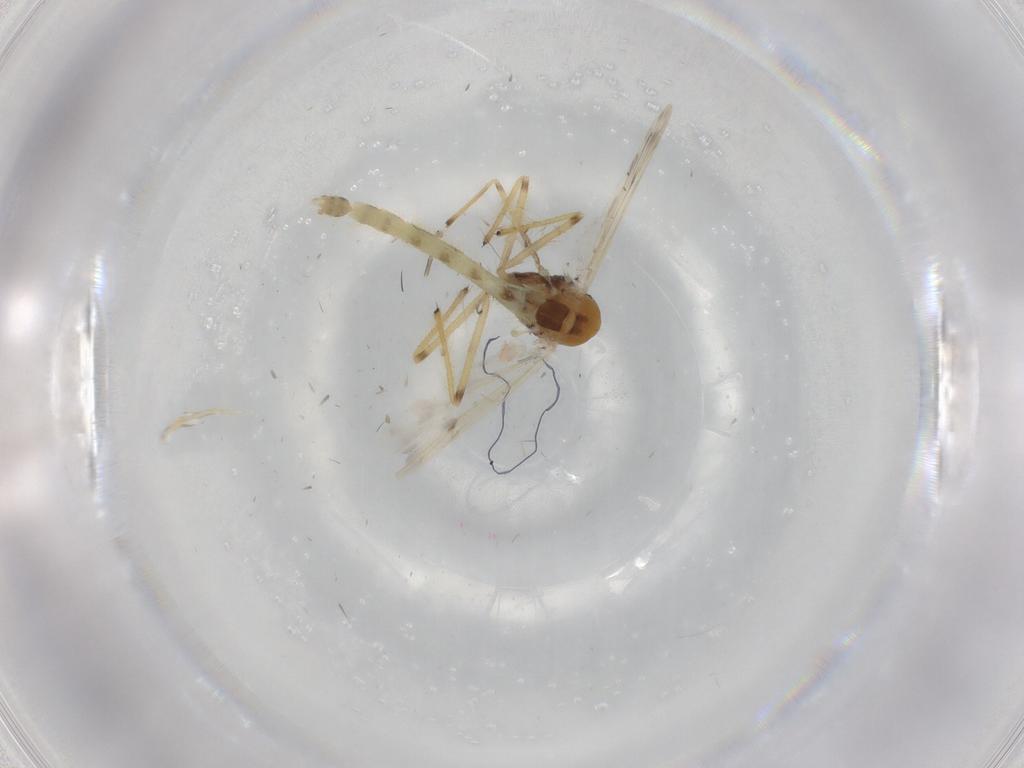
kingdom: Animalia
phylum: Arthropoda
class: Insecta
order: Diptera
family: Chironomidae
